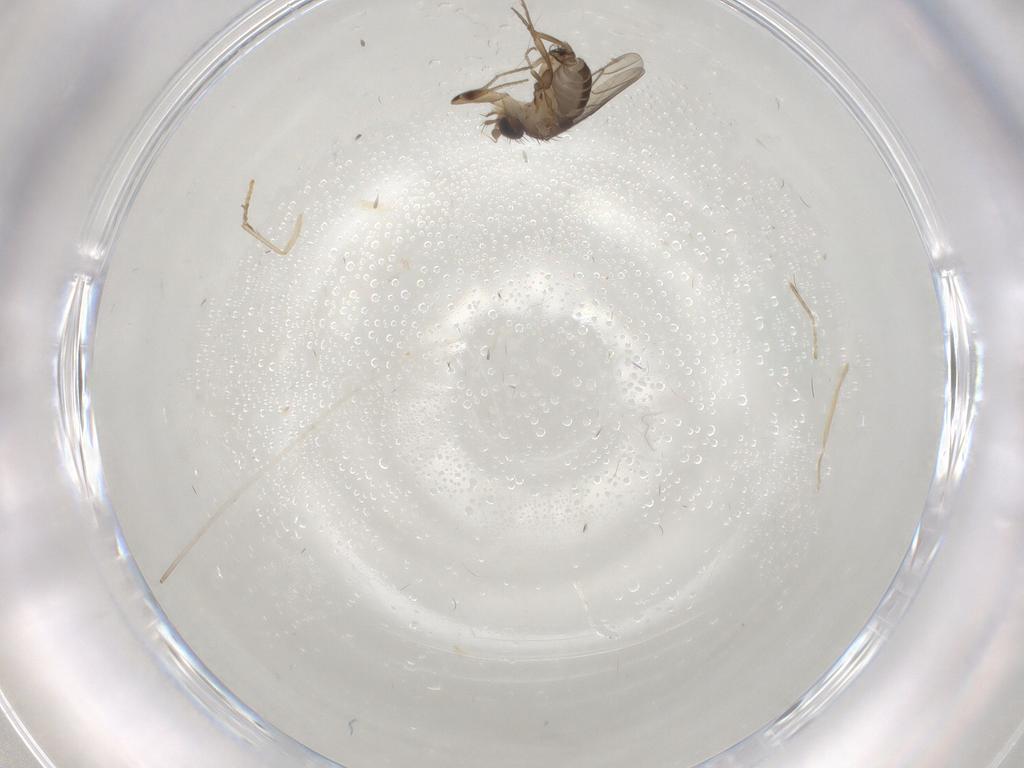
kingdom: Animalia
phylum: Arthropoda
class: Insecta
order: Diptera
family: Phoridae
